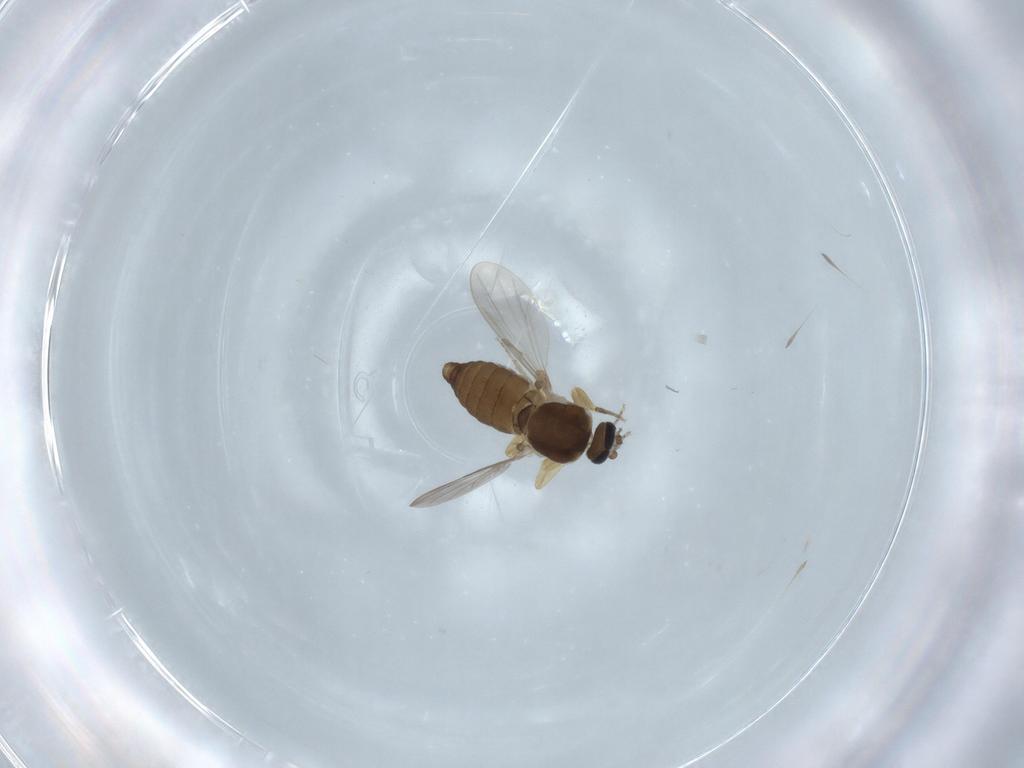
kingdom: Animalia
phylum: Arthropoda
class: Insecta
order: Diptera
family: Ceratopogonidae
